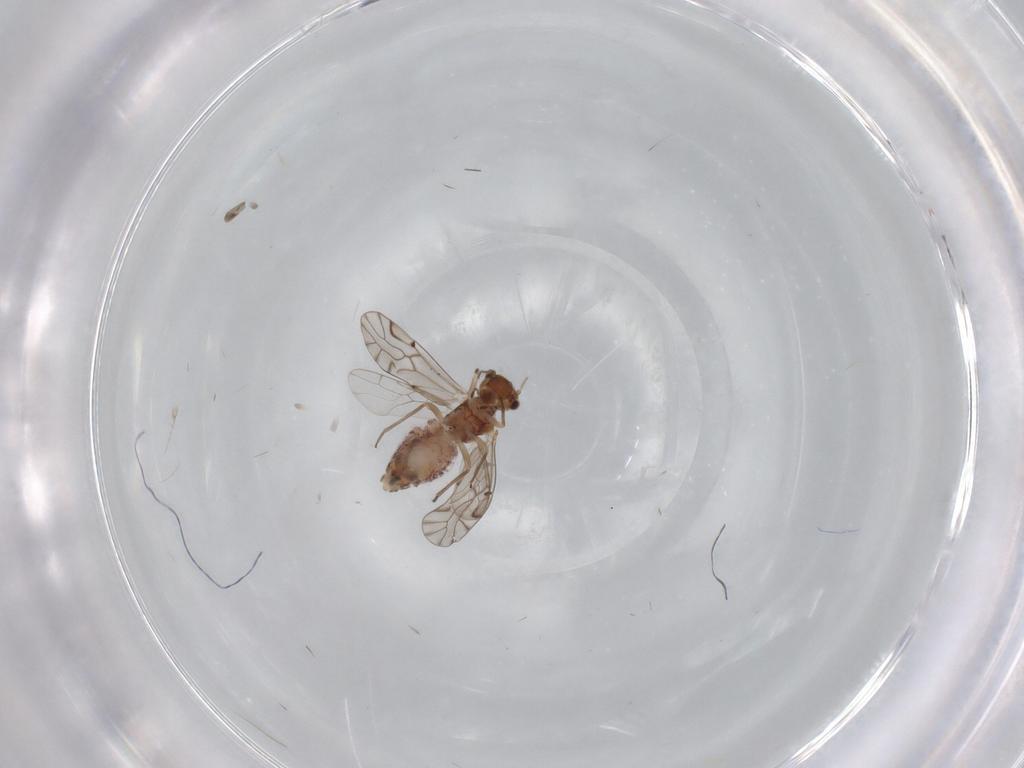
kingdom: Animalia
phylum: Arthropoda
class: Insecta
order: Psocodea
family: Lachesillidae
